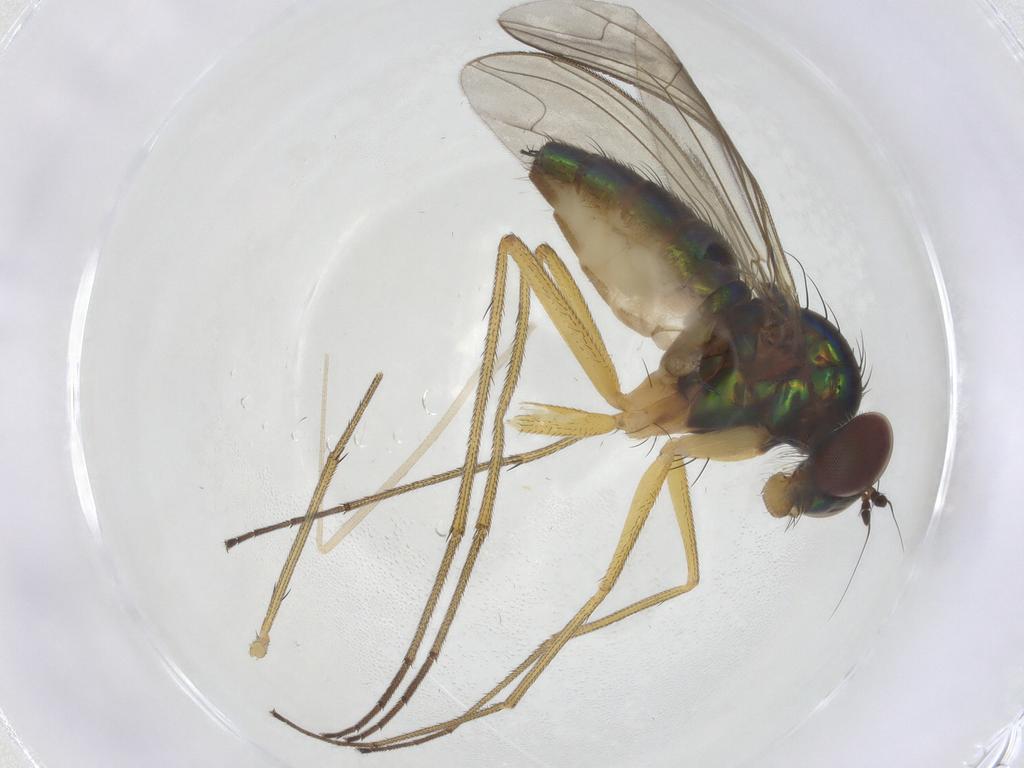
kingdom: Animalia
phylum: Arthropoda
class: Insecta
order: Diptera
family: Dolichopodidae
